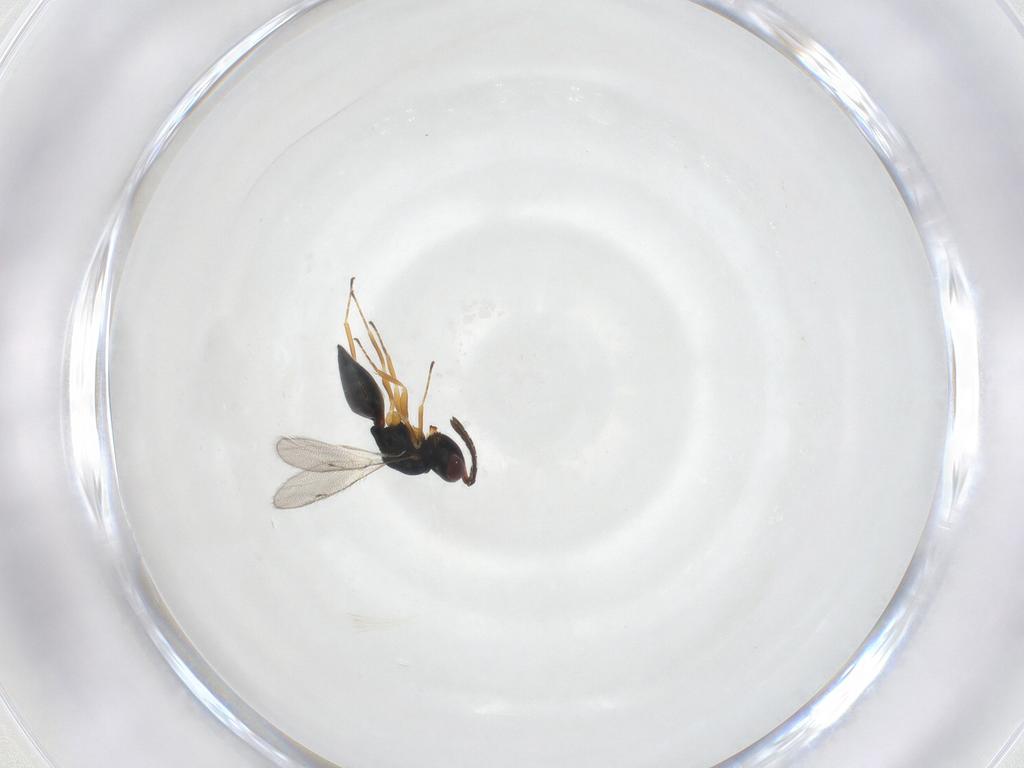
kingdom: Animalia
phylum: Arthropoda
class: Insecta
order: Hymenoptera
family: Pteromalidae
